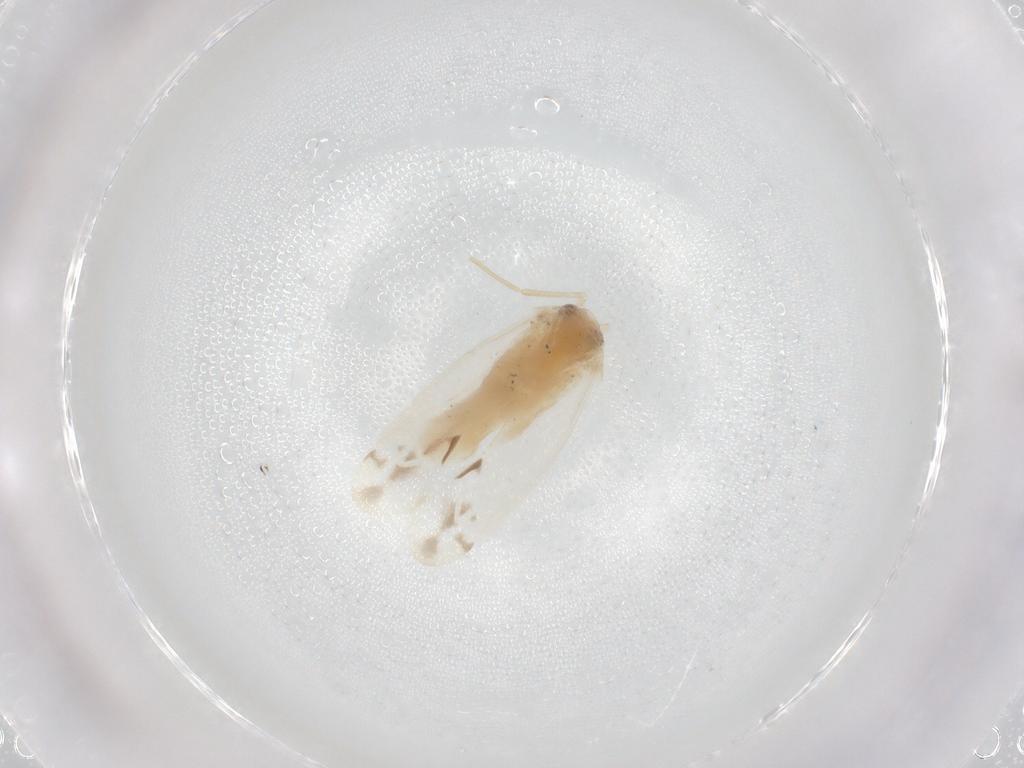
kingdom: Animalia
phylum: Arthropoda
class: Insecta
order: Hemiptera
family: Miridae
